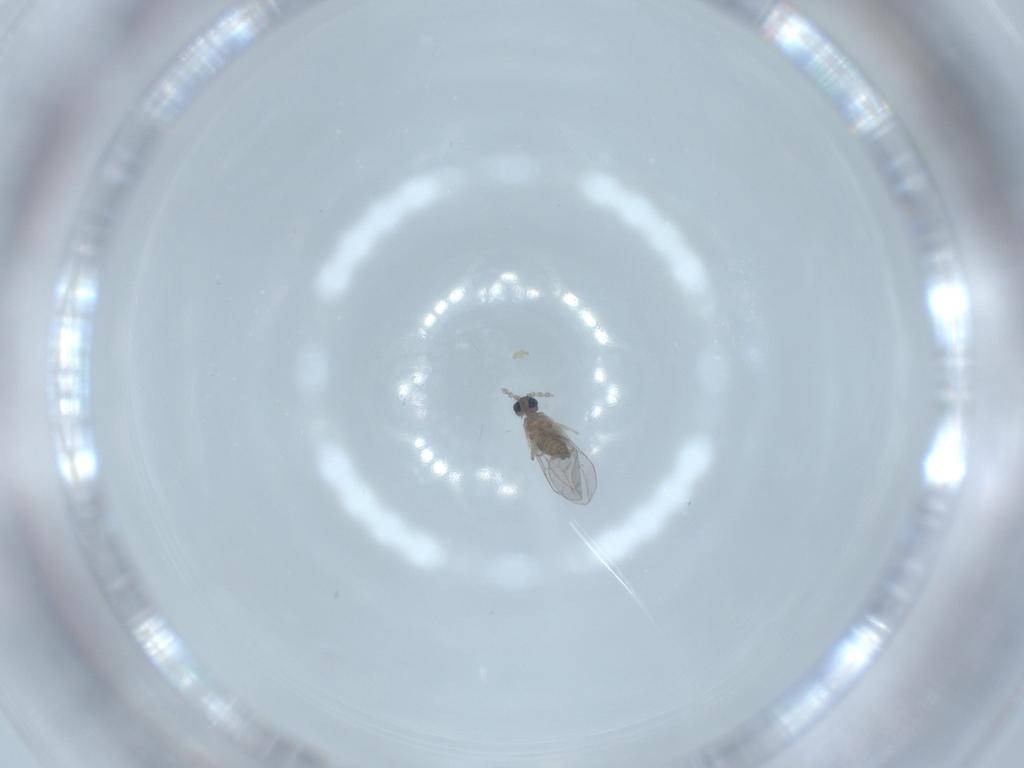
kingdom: Animalia
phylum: Arthropoda
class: Insecta
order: Diptera
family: Cecidomyiidae
